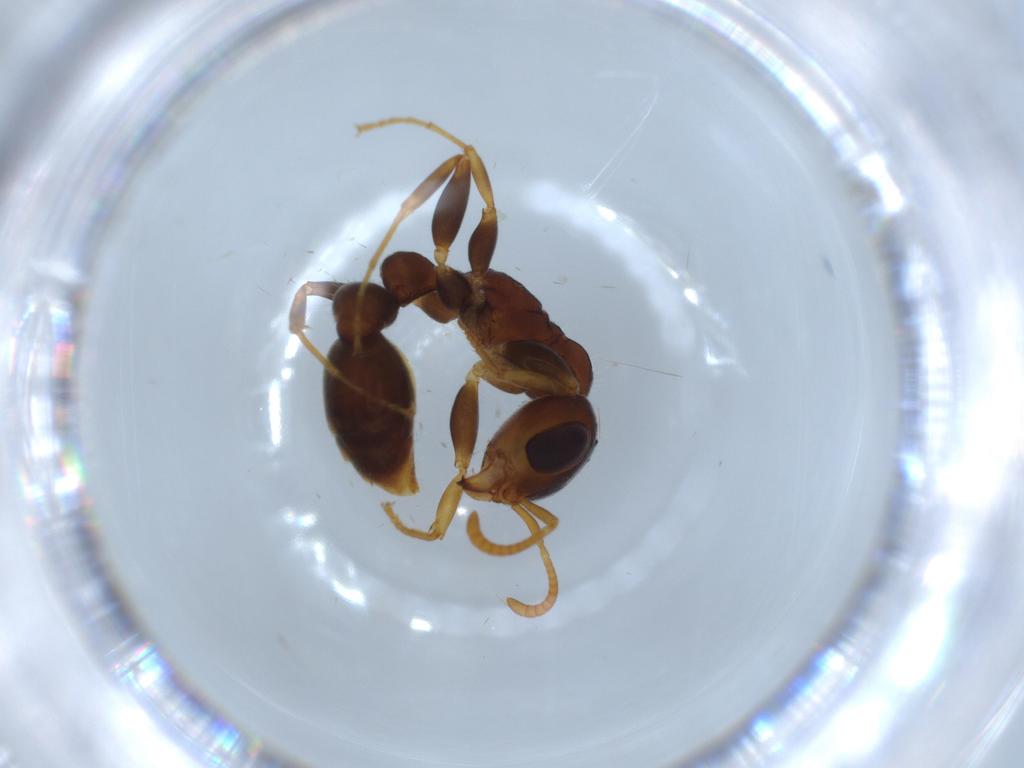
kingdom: Animalia
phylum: Arthropoda
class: Insecta
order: Hymenoptera
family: Formicidae
